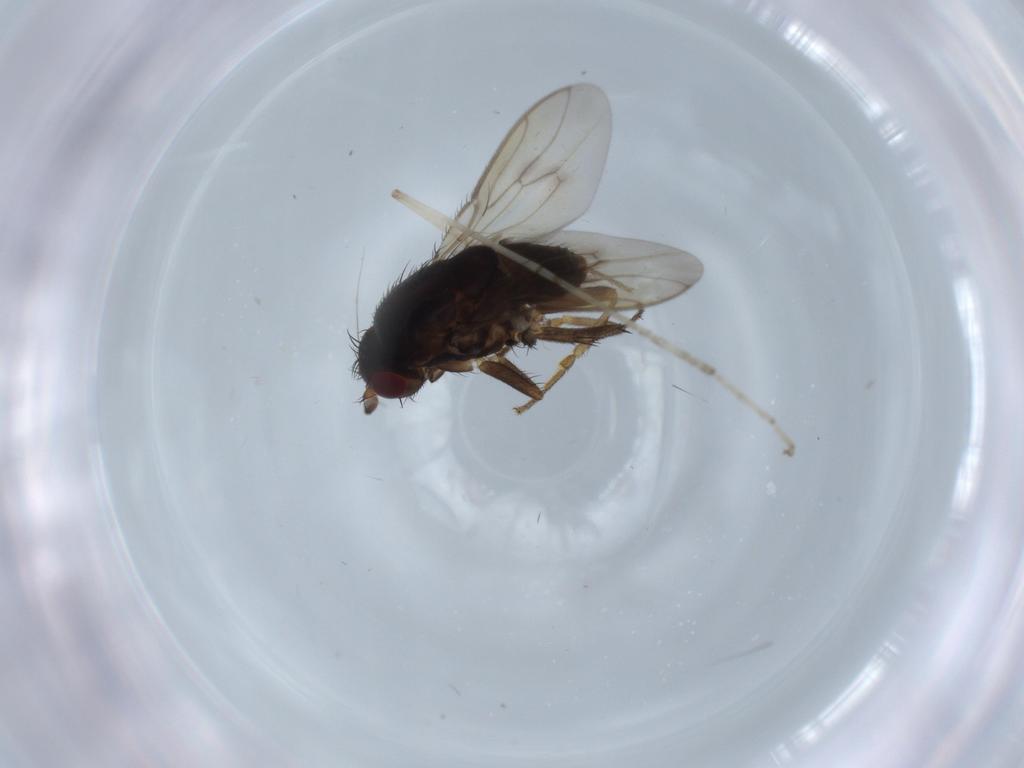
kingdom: Animalia
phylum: Arthropoda
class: Insecta
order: Diptera
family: Sphaeroceridae
